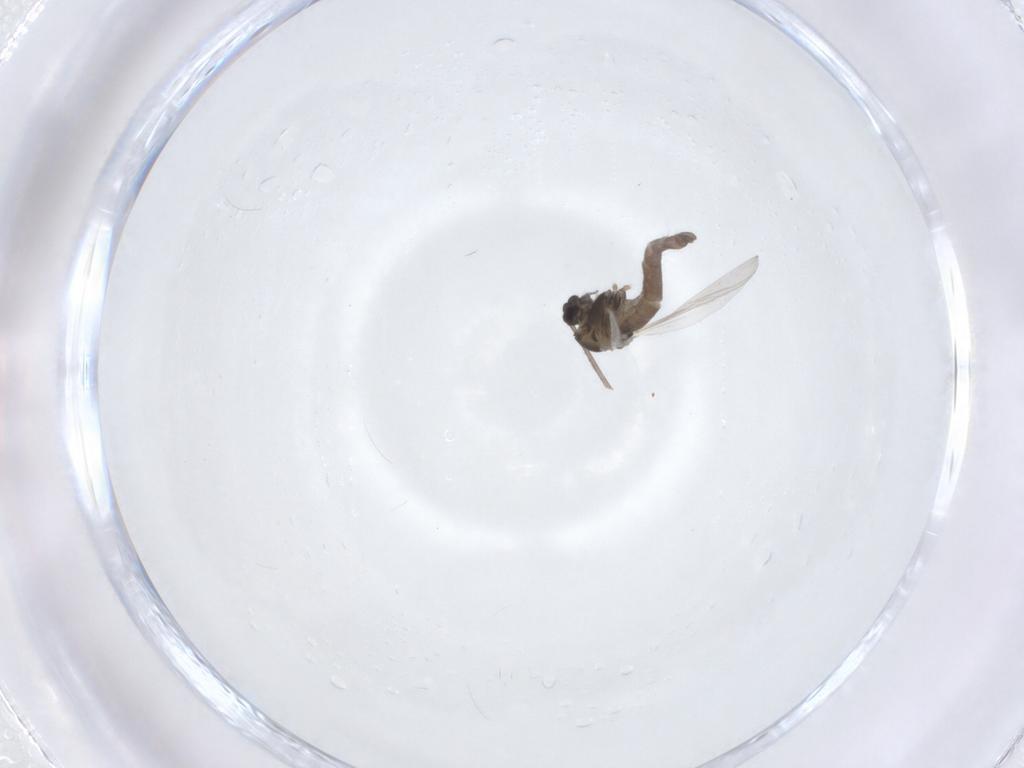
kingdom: Animalia
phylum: Arthropoda
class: Insecta
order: Diptera
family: Chironomidae
